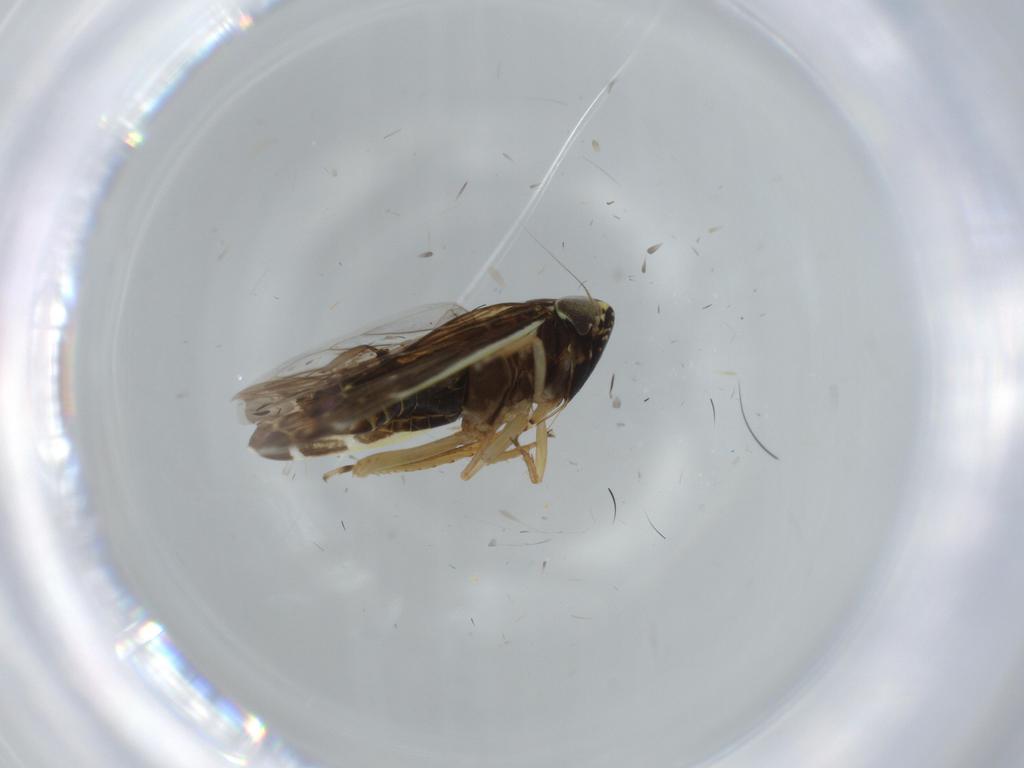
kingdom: Animalia
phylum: Arthropoda
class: Insecta
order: Hemiptera
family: Cicadellidae
